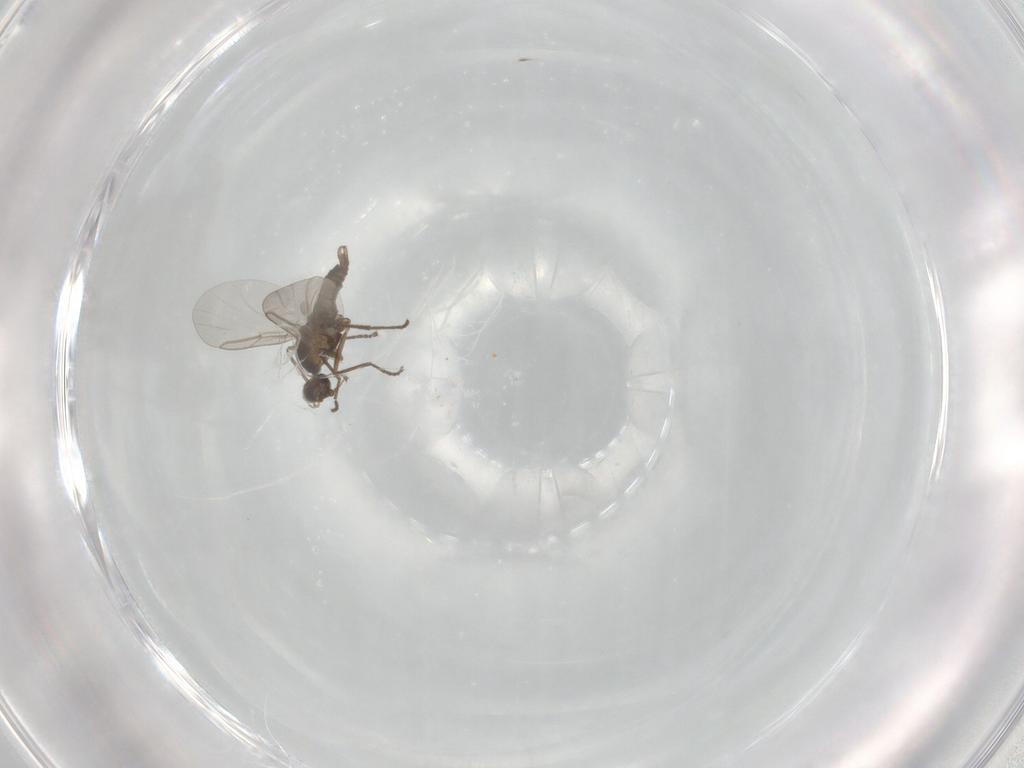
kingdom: Animalia
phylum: Arthropoda
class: Insecta
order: Diptera
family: Cecidomyiidae
